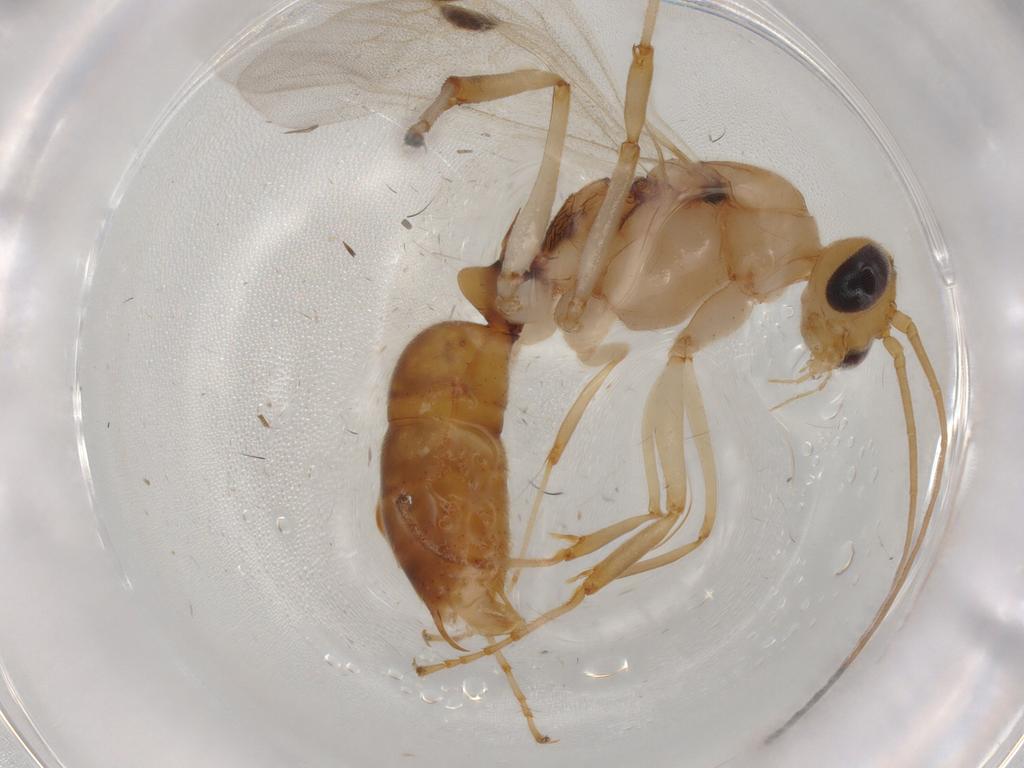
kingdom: Animalia
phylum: Arthropoda
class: Insecta
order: Hymenoptera
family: Formicidae
